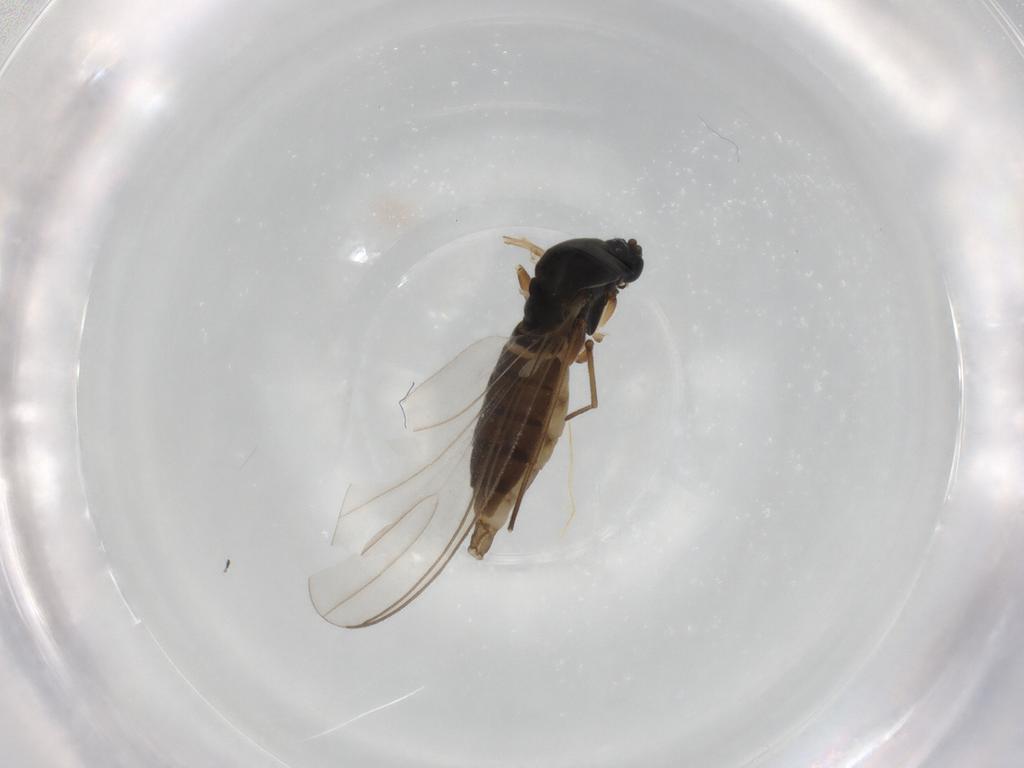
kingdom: Animalia
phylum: Arthropoda
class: Insecta
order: Diptera
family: Sciaridae
